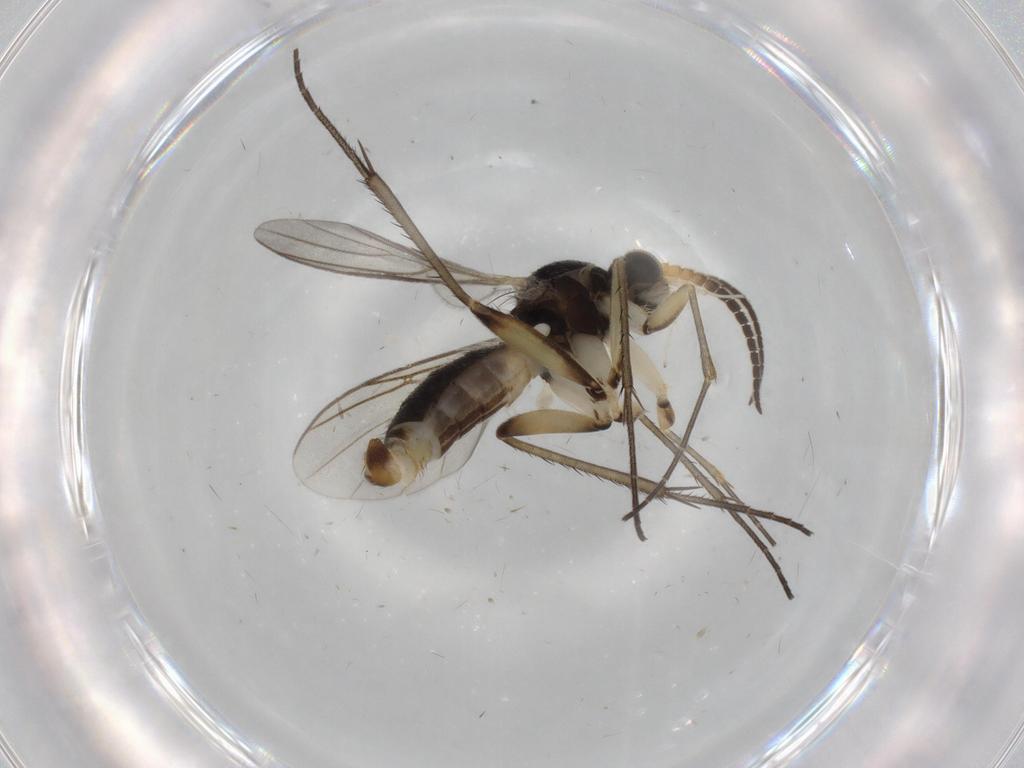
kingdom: Animalia
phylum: Arthropoda
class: Insecta
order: Diptera
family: Mycetophilidae
